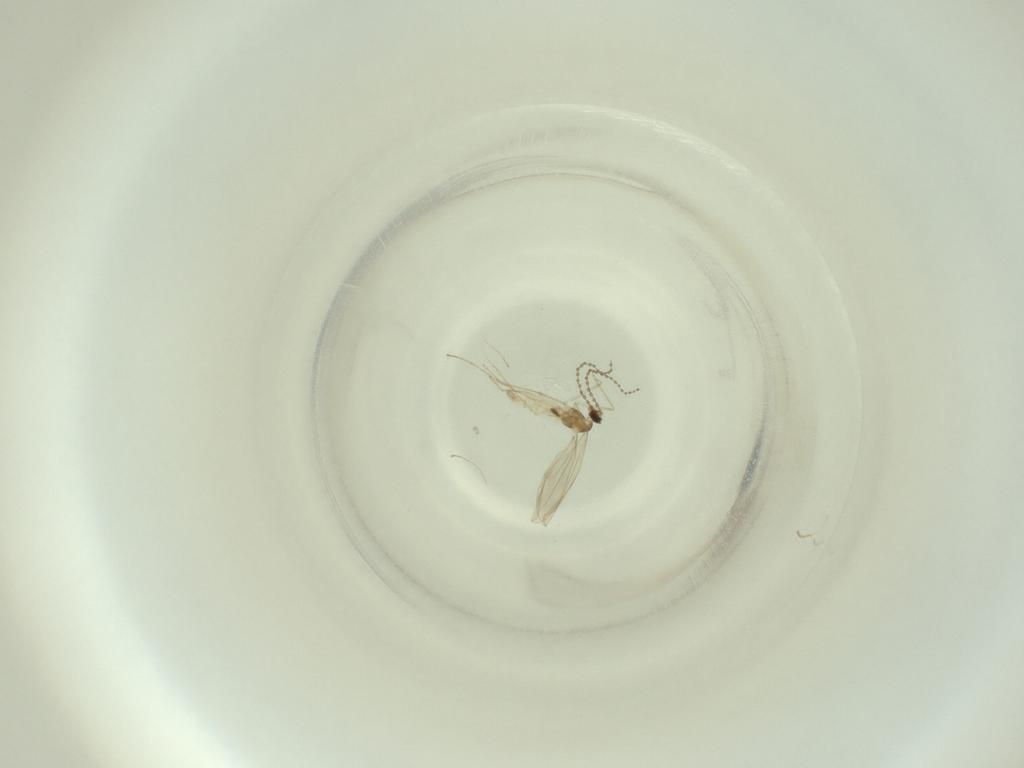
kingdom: Animalia
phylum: Arthropoda
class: Insecta
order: Diptera
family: Cecidomyiidae
